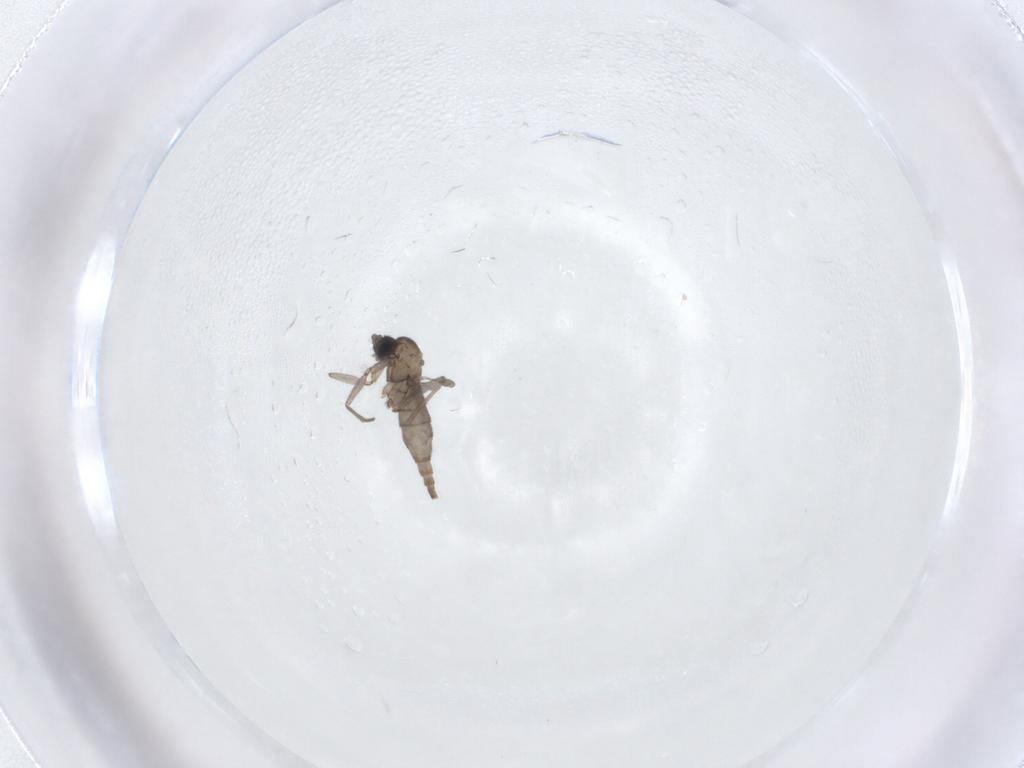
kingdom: Animalia
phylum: Arthropoda
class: Insecta
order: Diptera
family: Sciaridae
